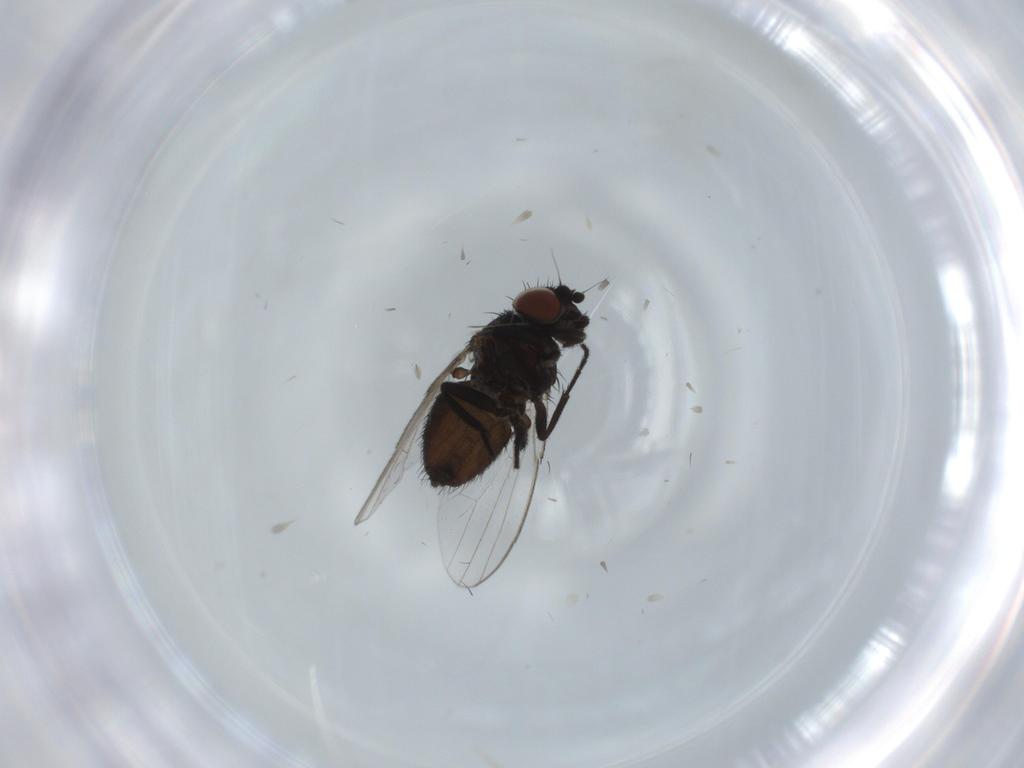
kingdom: Animalia
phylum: Arthropoda
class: Insecta
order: Diptera
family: Milichiidae
